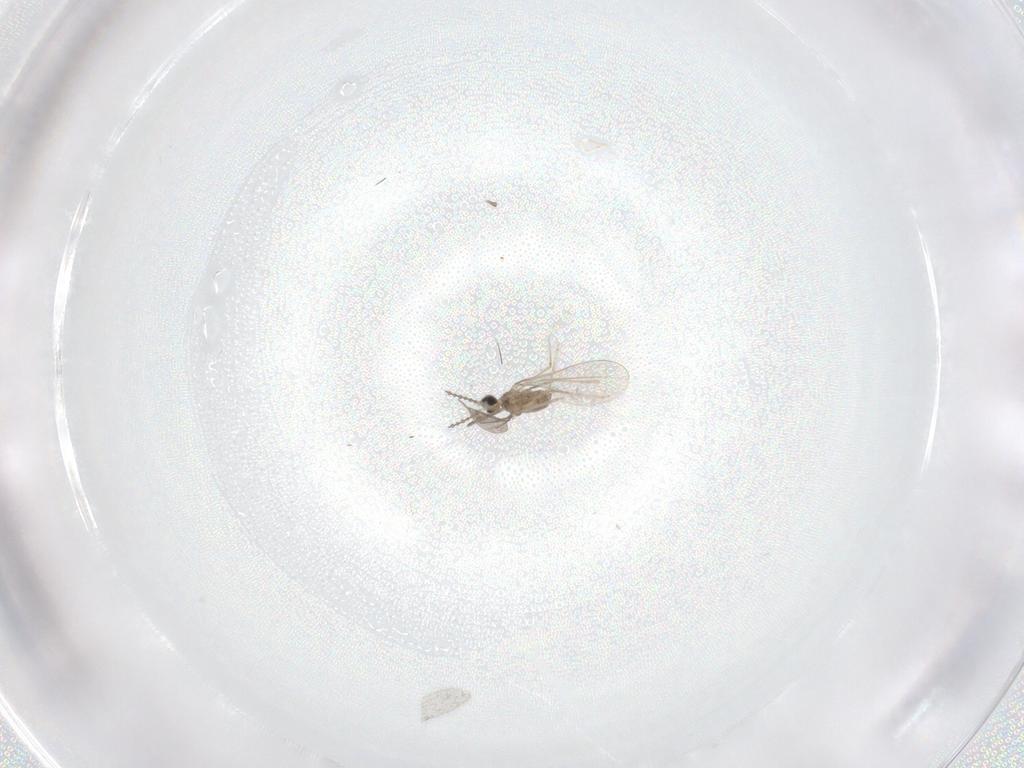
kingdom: Animalia
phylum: Arthropoda
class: Insecta
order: Diptera
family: Cecidomyiidae
